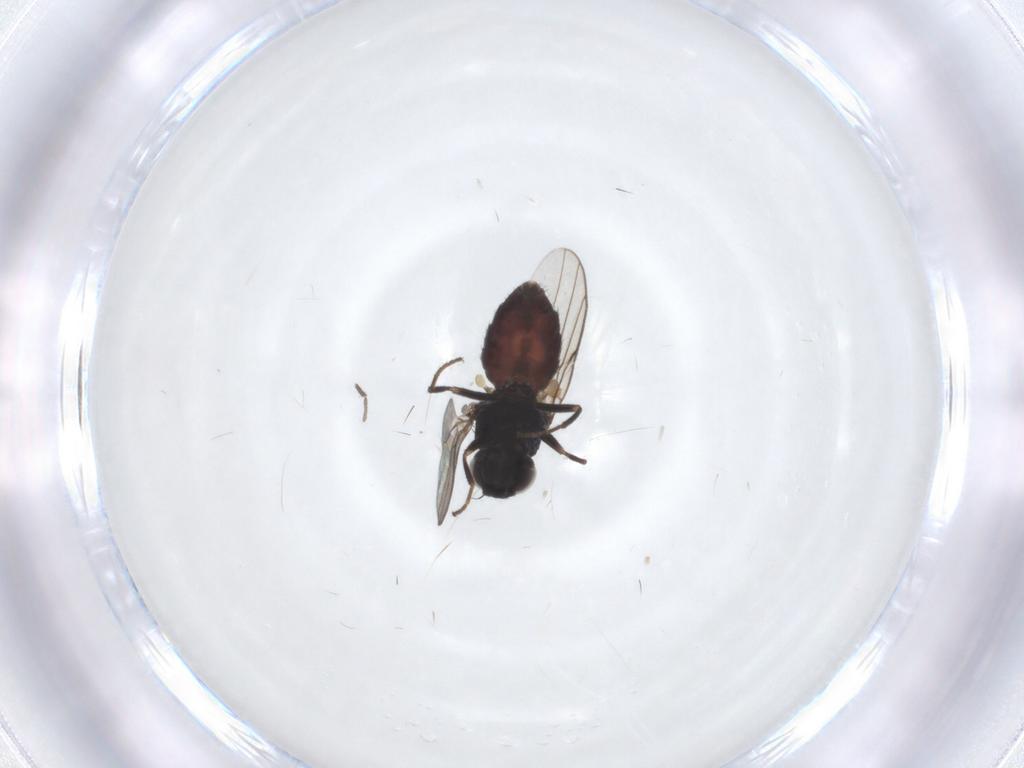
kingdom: Animalia
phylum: Arthropoda
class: Insecta
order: Diptera
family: Chloropidae
